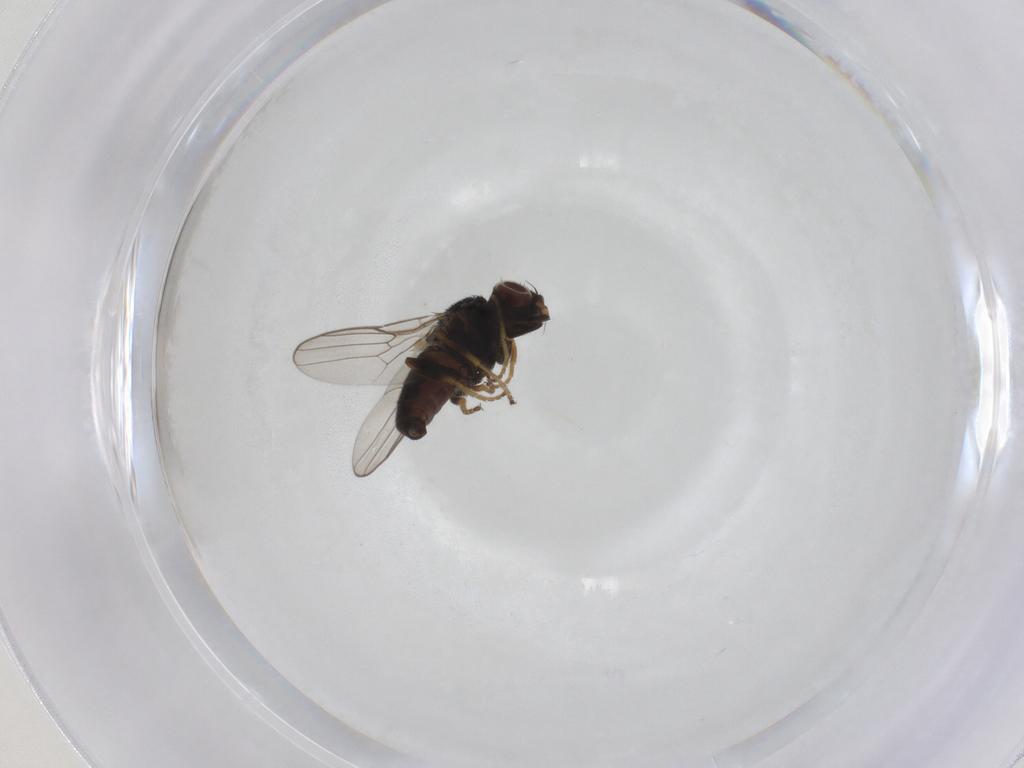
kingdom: Animalia
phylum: Arthropoda
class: Insecta
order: Diptera
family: Chloropidae
